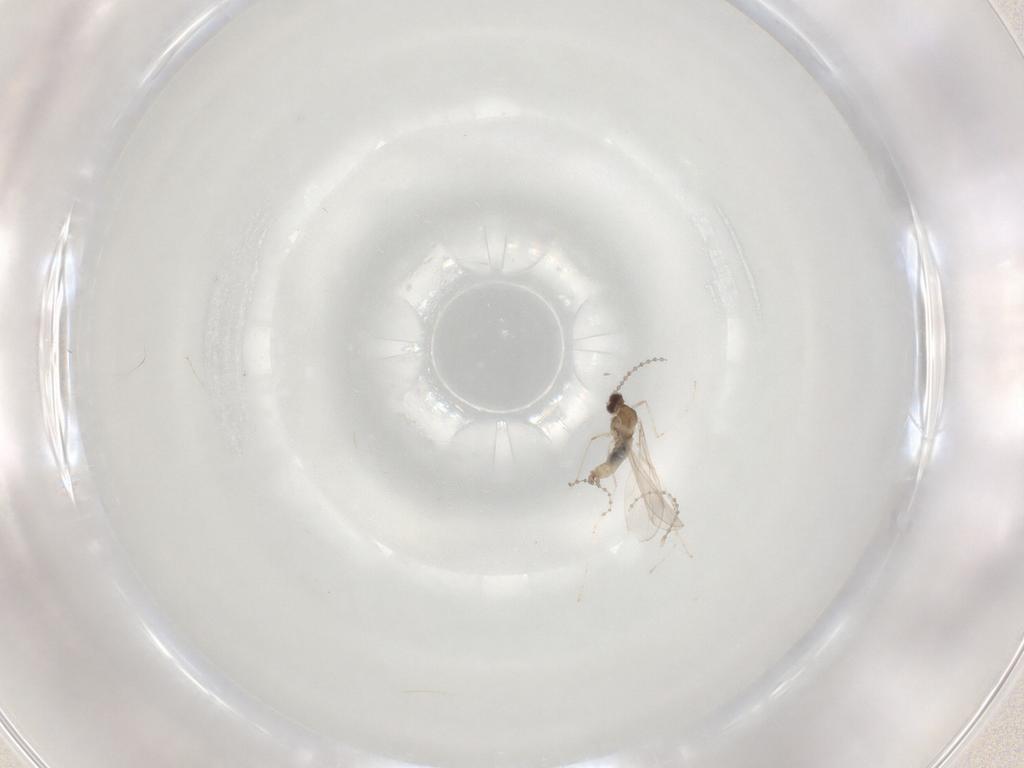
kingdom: Animalia
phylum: Arthropoda
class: Insecta
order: Diptera
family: Cecidomyiidae
